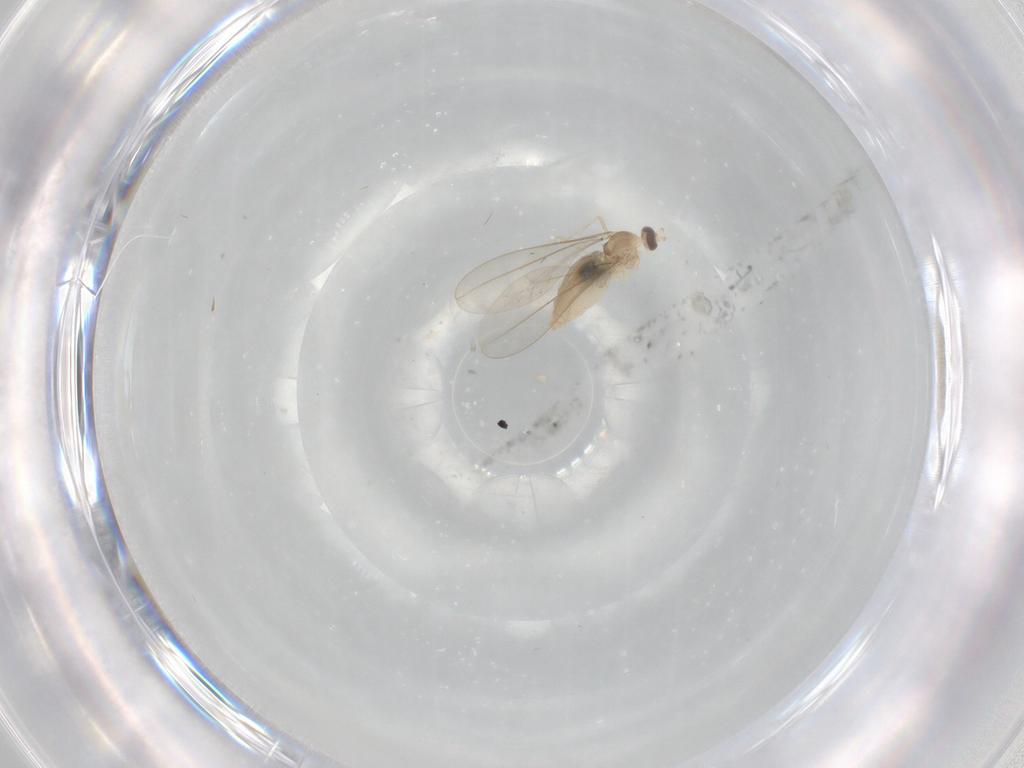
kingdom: Animalia
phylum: Arthropoda
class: Insecta
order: Diptera
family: Cecidomyiidae
